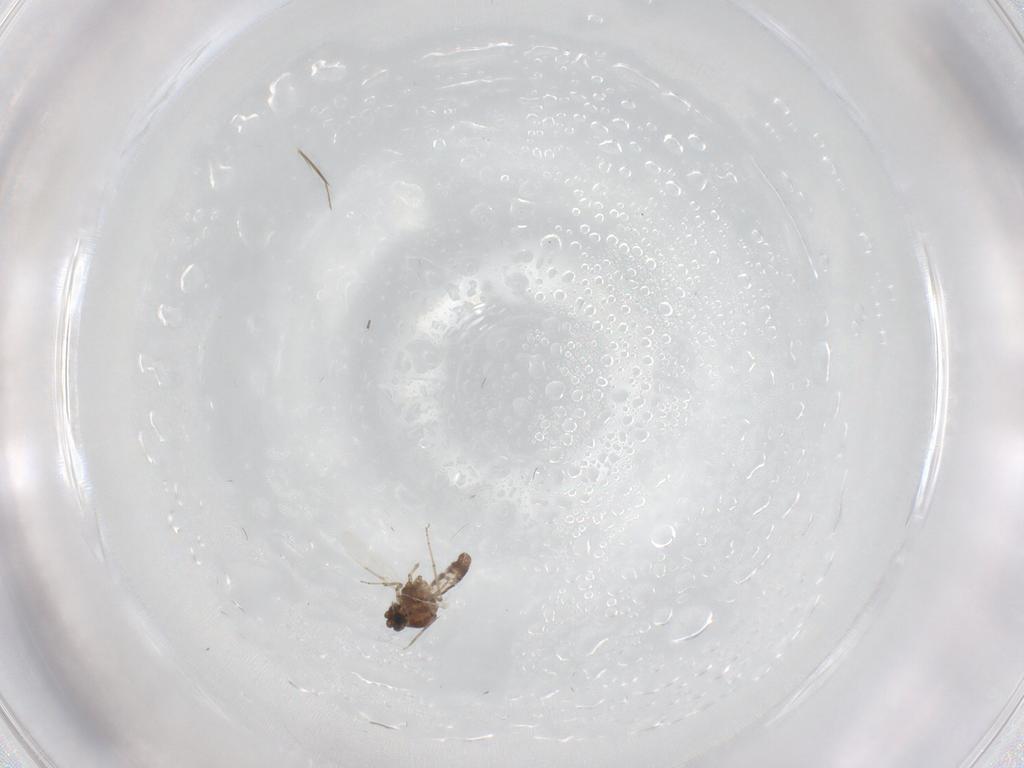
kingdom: Animalia
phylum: Arthropoda
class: Insecta
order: Diptera
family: Ceratopogonidae
